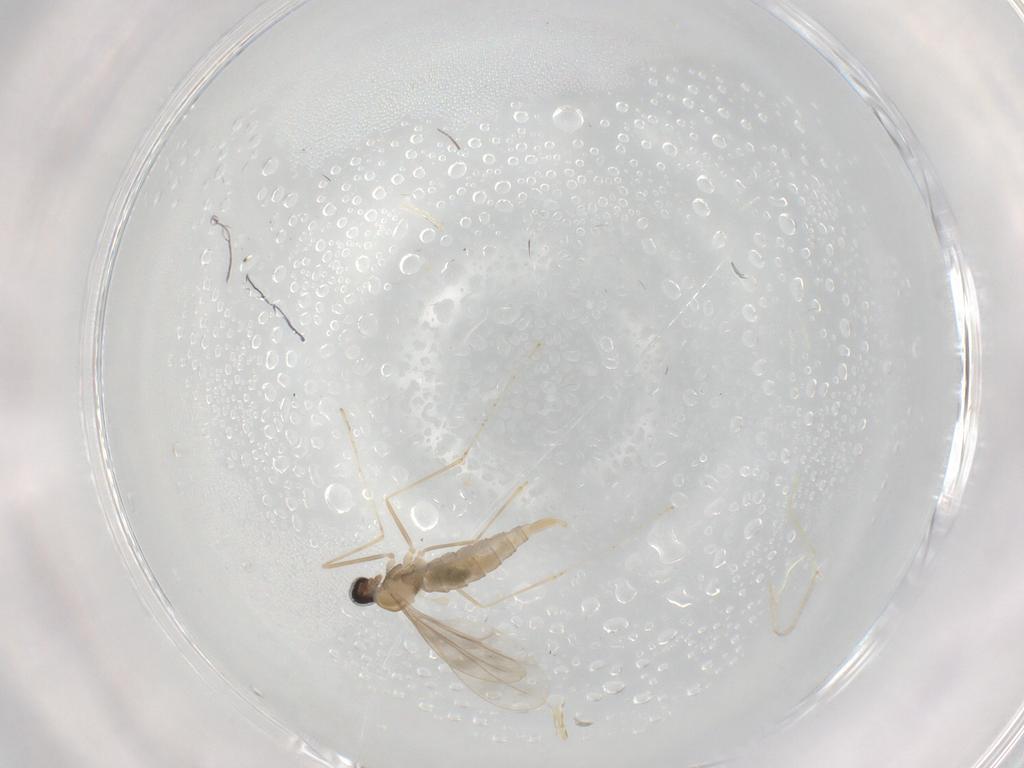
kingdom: Animalia
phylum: Arthropoda
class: Insecta
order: Diptera
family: Cecidomyiidae
